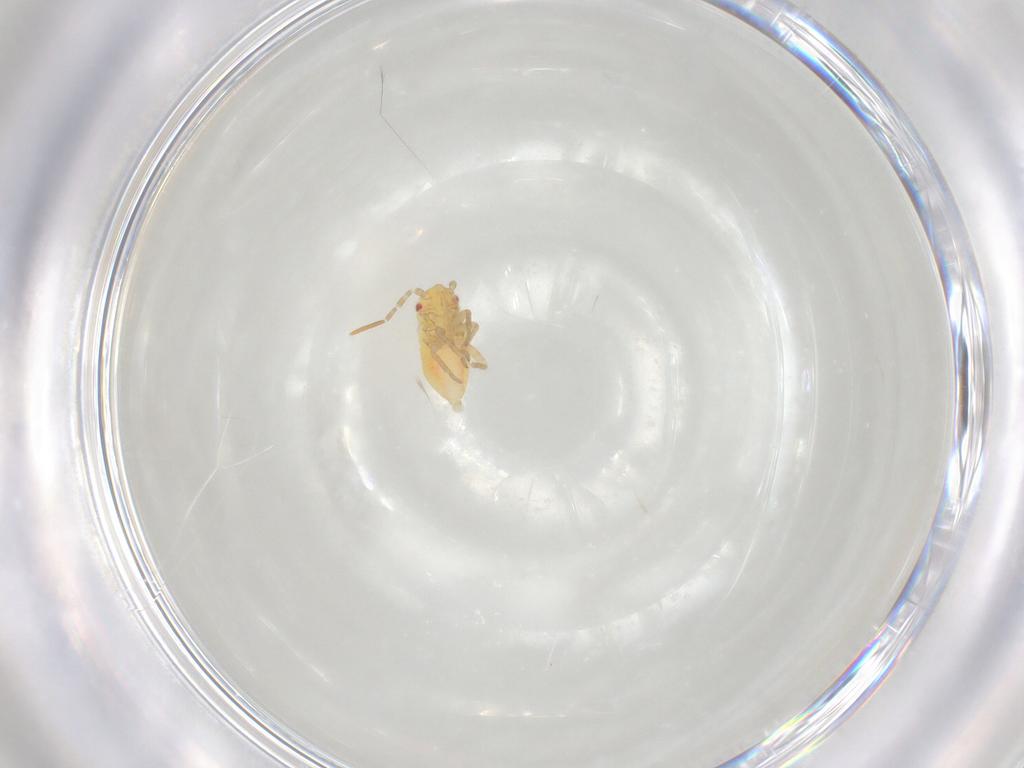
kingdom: Animalia
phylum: Arthropoda
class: Insecta
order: Hemiptera
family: Miridae
